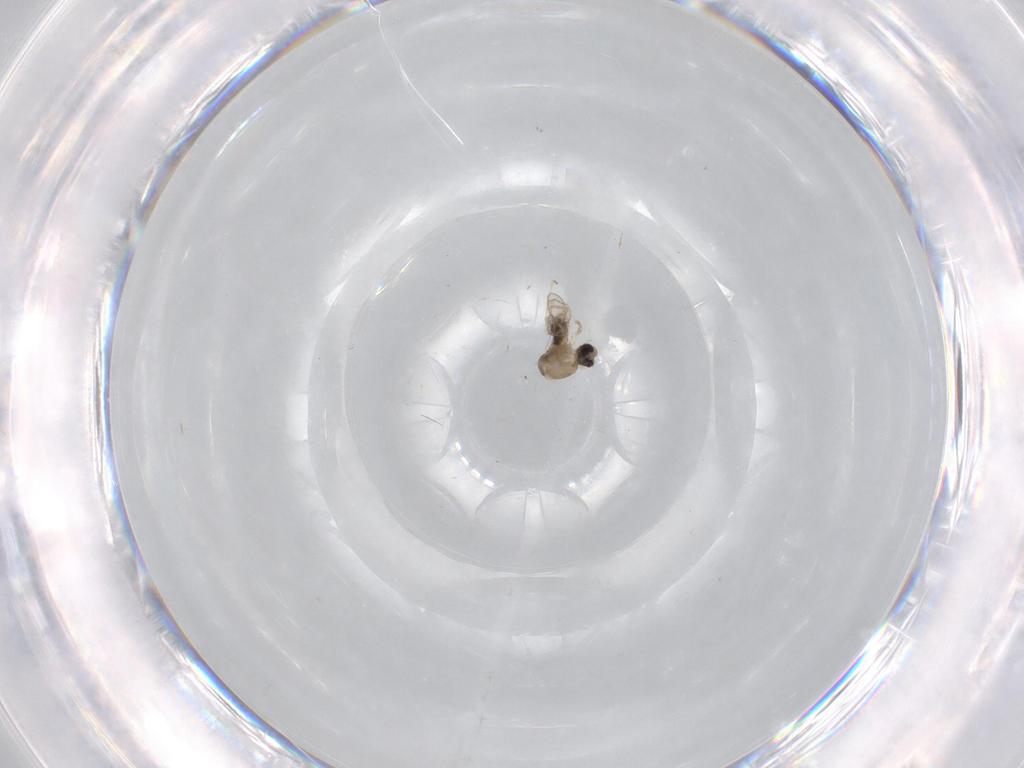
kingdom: Animalia
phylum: Arthropoda
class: Insecta
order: Diptera
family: Cecidomyiidae
